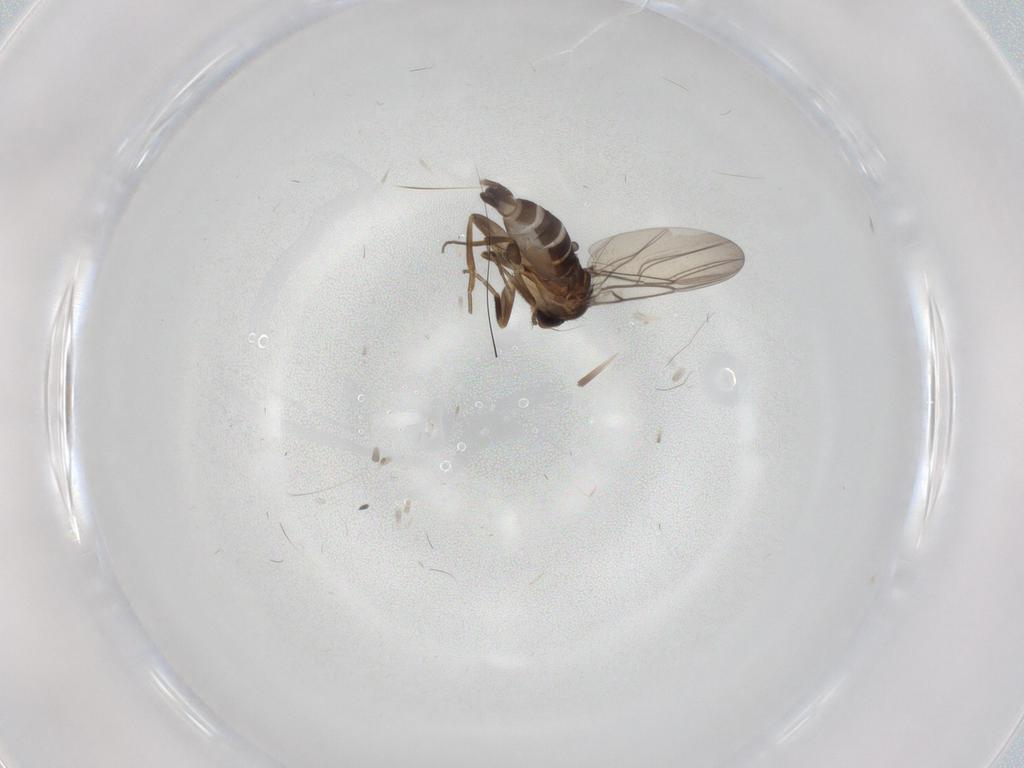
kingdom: Animalia
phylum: Arthropoda
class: Insecta
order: Diptera
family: Phoridae
